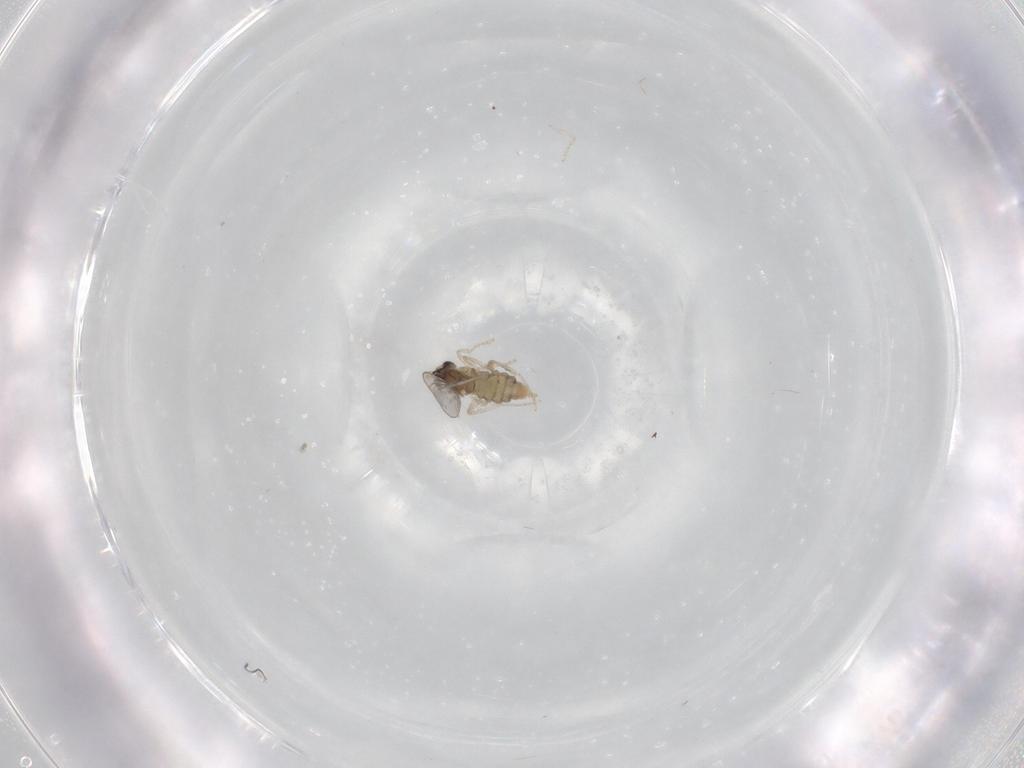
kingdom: Animalia
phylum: Arthropoda
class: Insecta
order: Diptera
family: Cecidomyiidae
